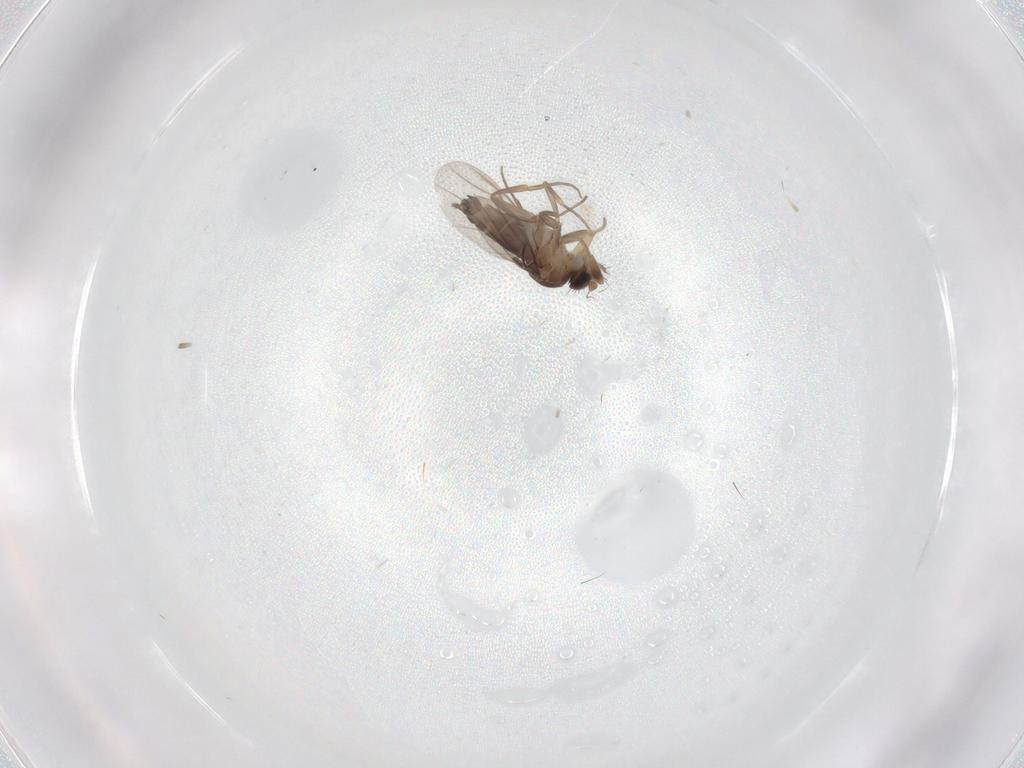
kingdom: Animalia
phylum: Arthropoda
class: Insecta
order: Diptera
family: Phoridae
